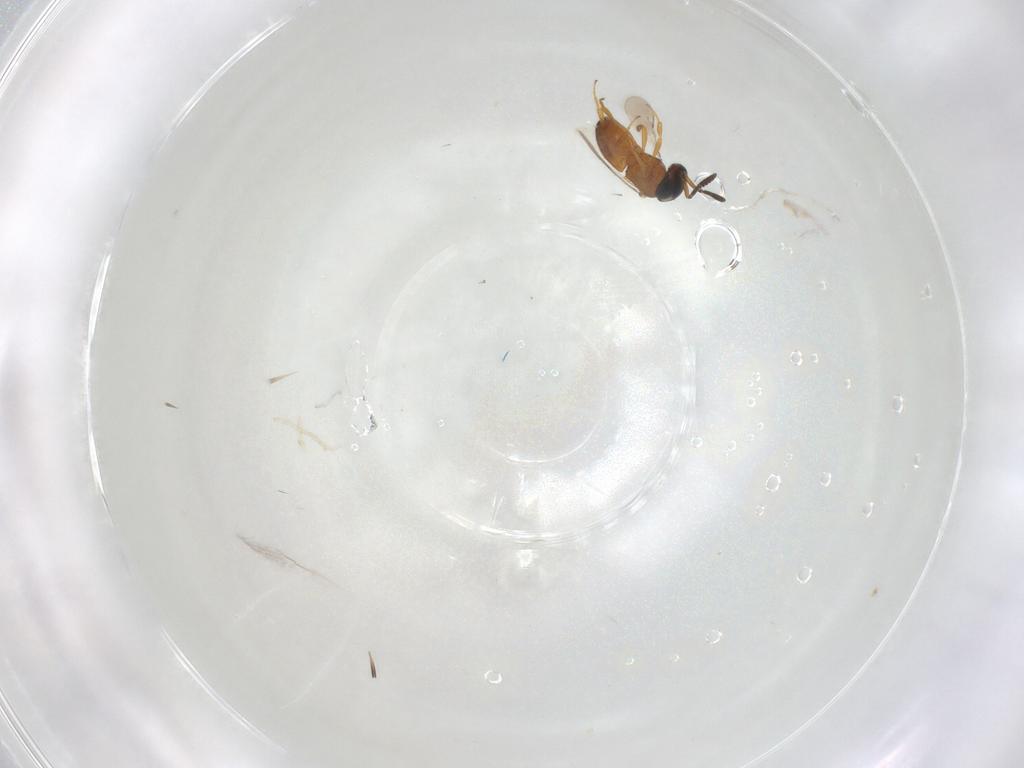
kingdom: Animalia
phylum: Arthropoda
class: Insecta
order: Hymenoptera
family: Scelionidae
